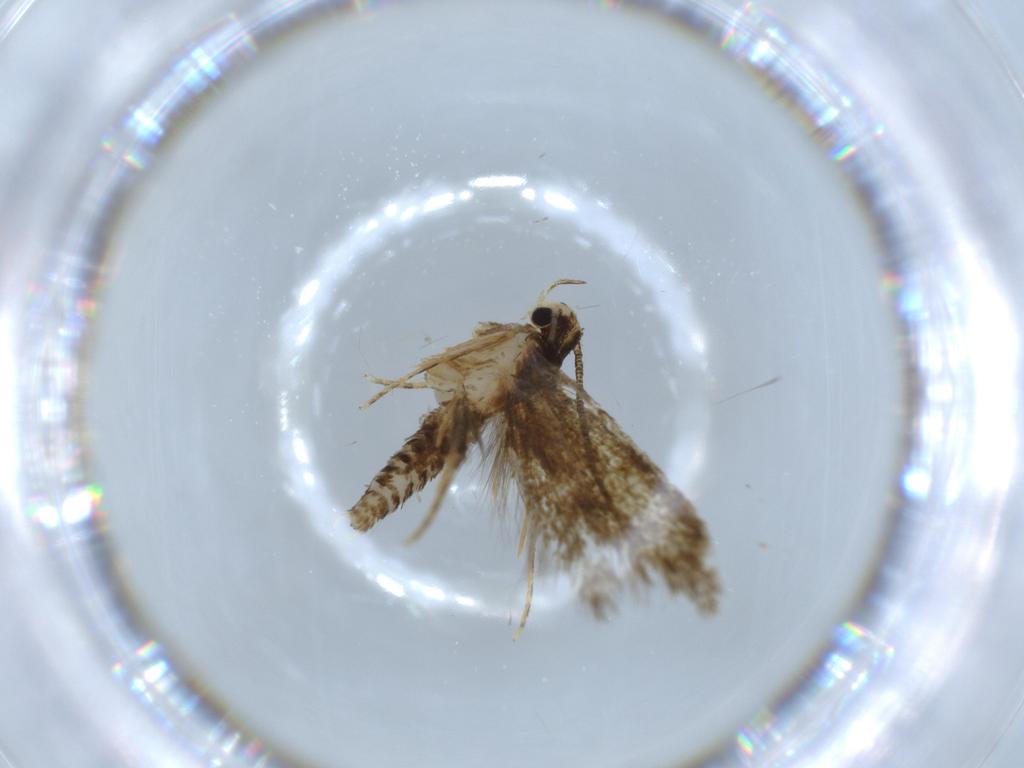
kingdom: Animalia
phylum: Arthropoda
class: Insecta
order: Lepidoptera
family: Tineidae
